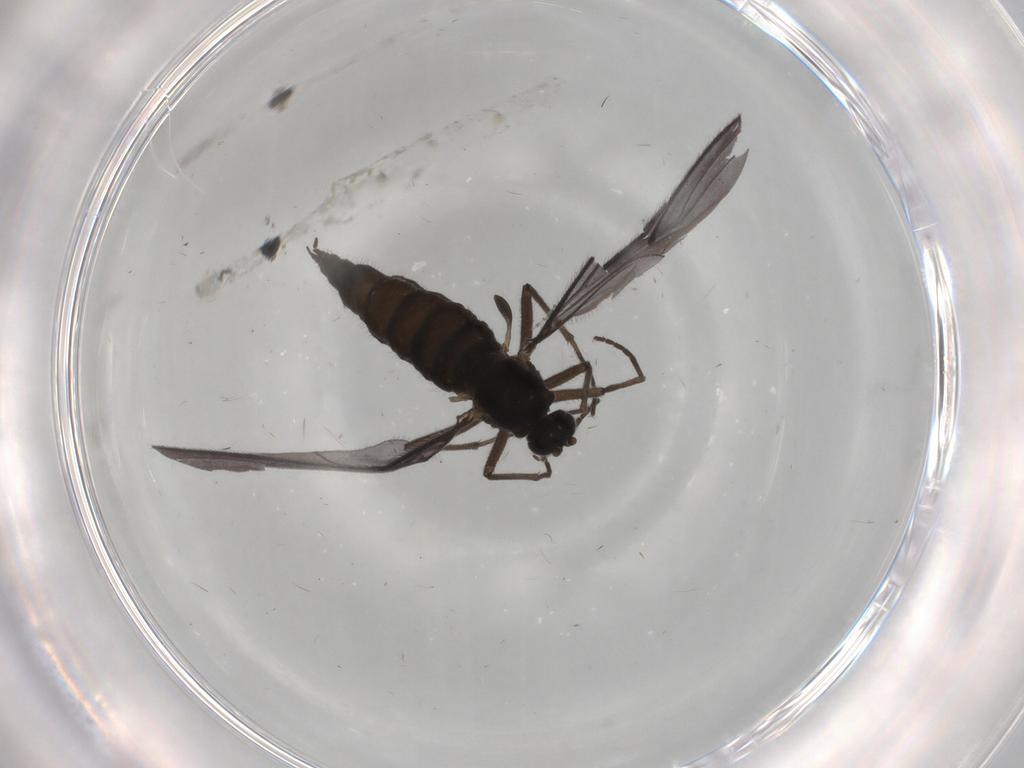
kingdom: Animalia
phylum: Arthropoda
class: Insecta
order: Diptera
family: Sciaridae
